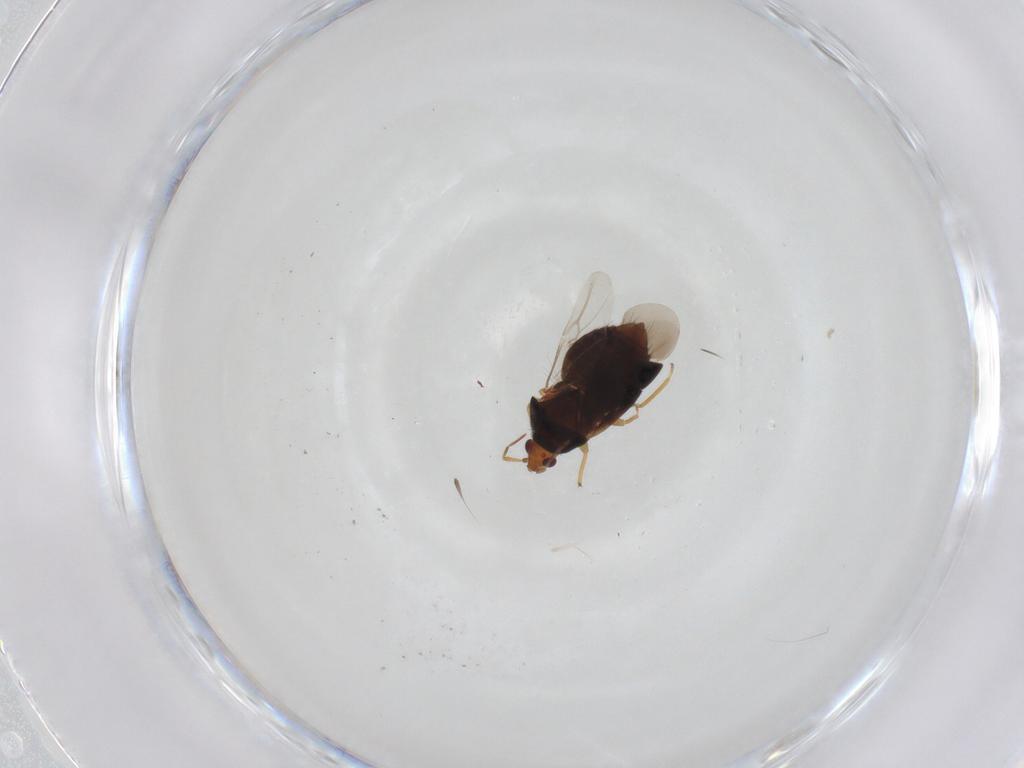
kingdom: Animalia
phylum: Arthropoda
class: Insecta
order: Hemiptera
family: Anthocoridae
